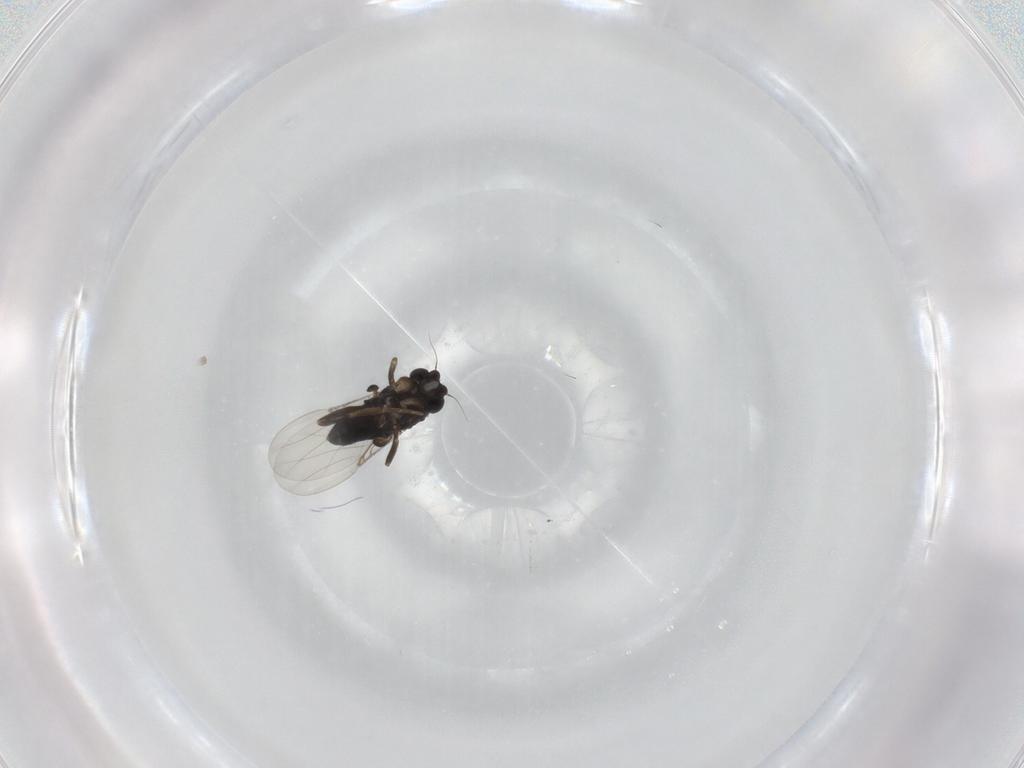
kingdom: Animalia
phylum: Arthropoda
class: Insecta
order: Diptera
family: Phoridae
